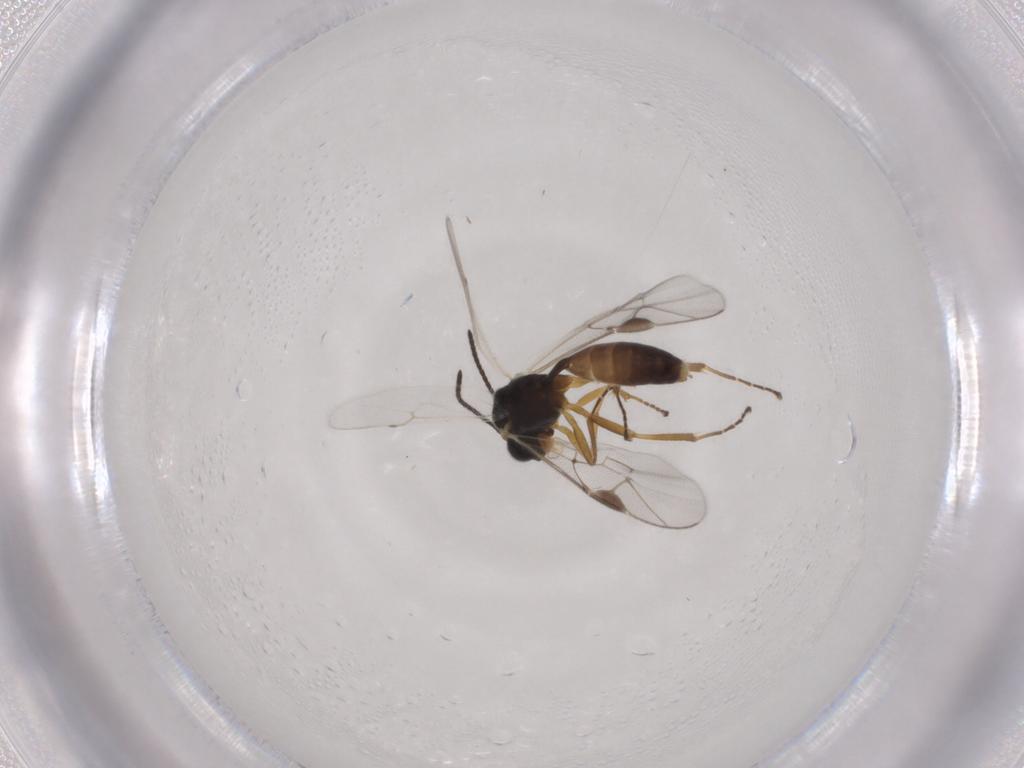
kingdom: Animalia
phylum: Arthropoda
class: Insecta
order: Hymenoptera
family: Ichneumonidae
